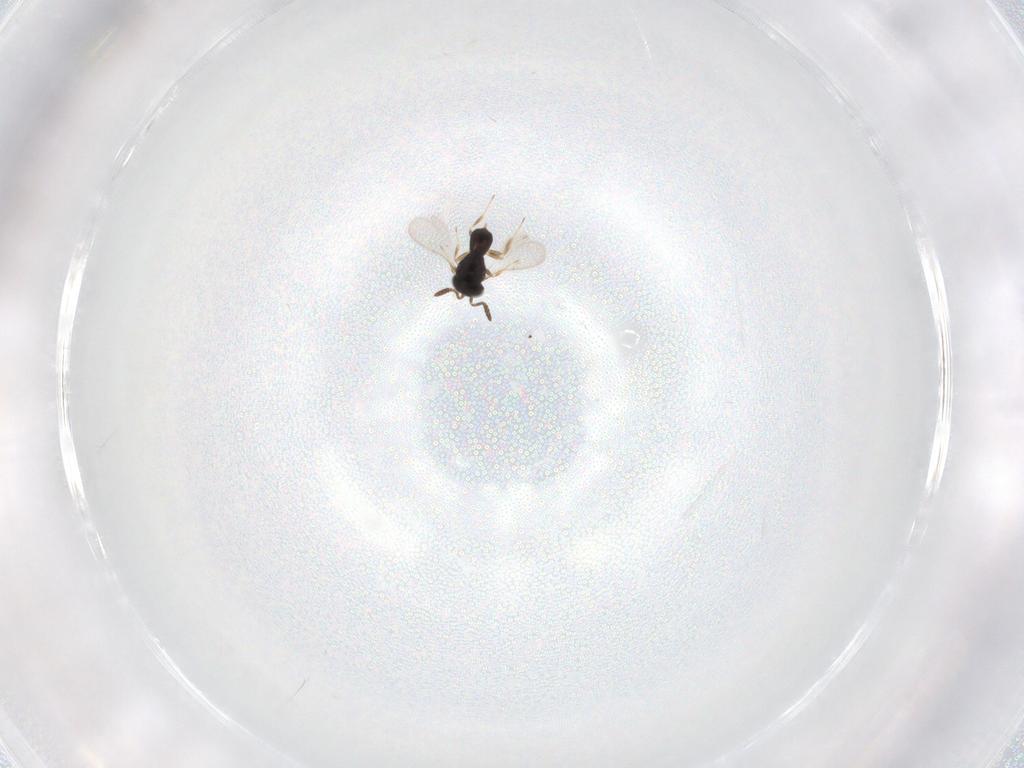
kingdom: Animalia
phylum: Arthropoda
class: Insecta
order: Hymenoptera
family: Scelionidae
